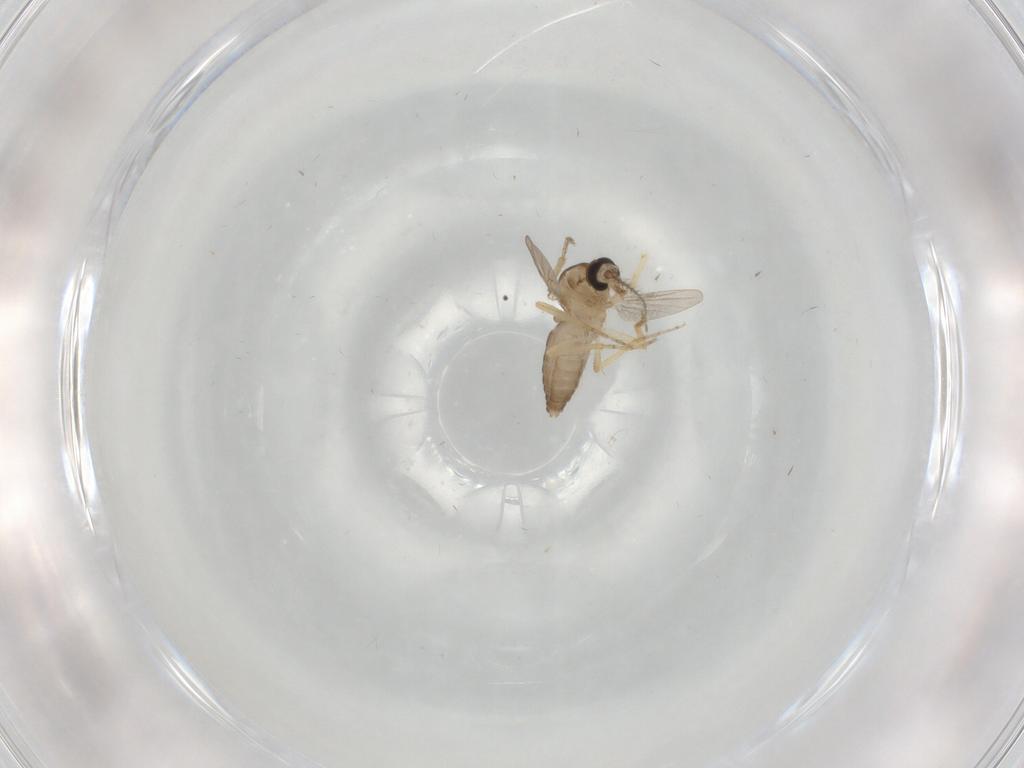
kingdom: Animalia
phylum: Arthropoda
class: Insecta
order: Diptera
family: Ceratopogonidae
